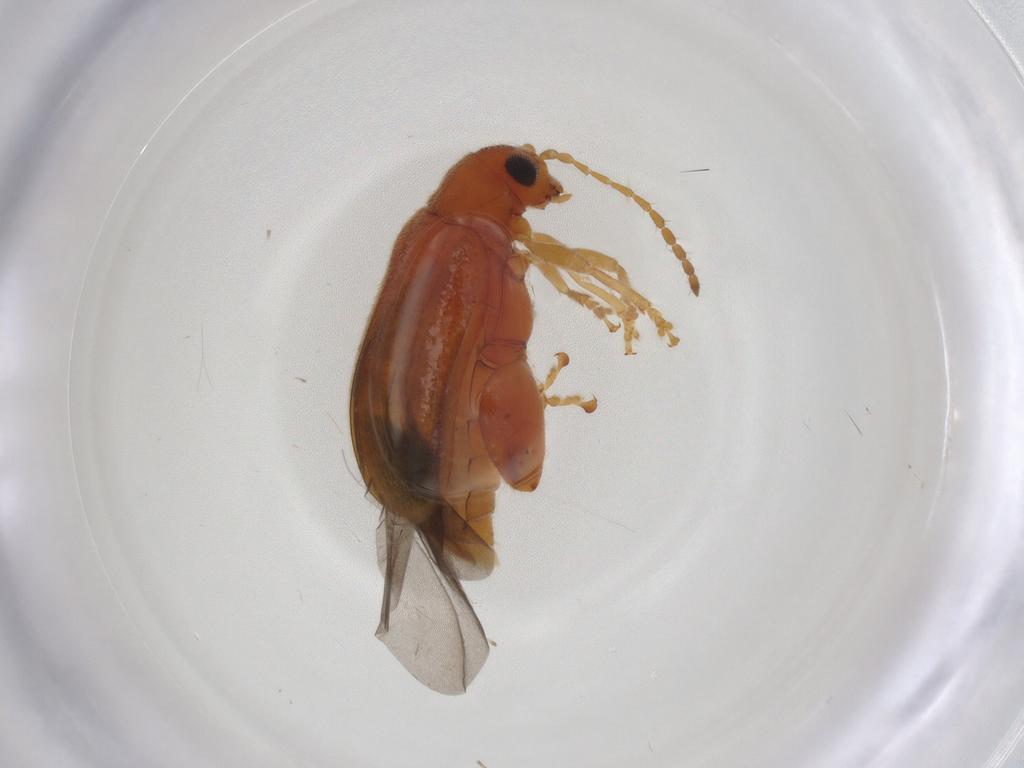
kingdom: Animalia
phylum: Arthropoda
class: Insecta
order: Coleoptera
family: Chrysomelidae
